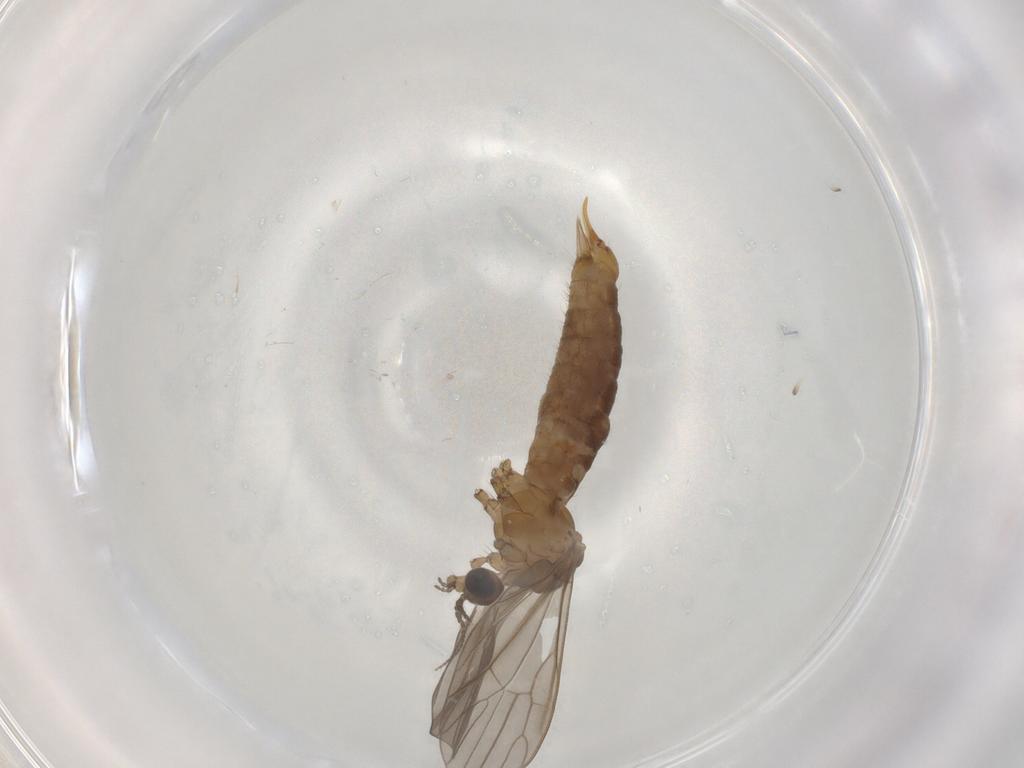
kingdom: Animalia
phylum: Arthropoda
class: Insecta
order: Diptera
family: Limoniidae
